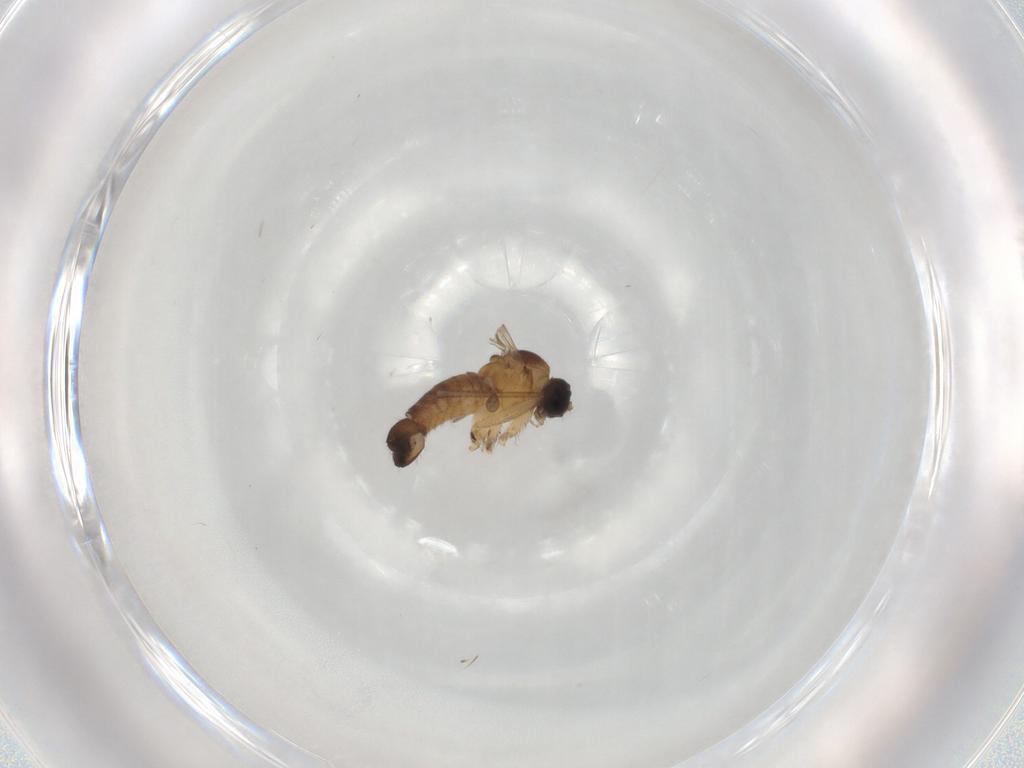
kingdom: Animalia
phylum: Arthropoda
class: Insecta
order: Diptera
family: Sciaridae
